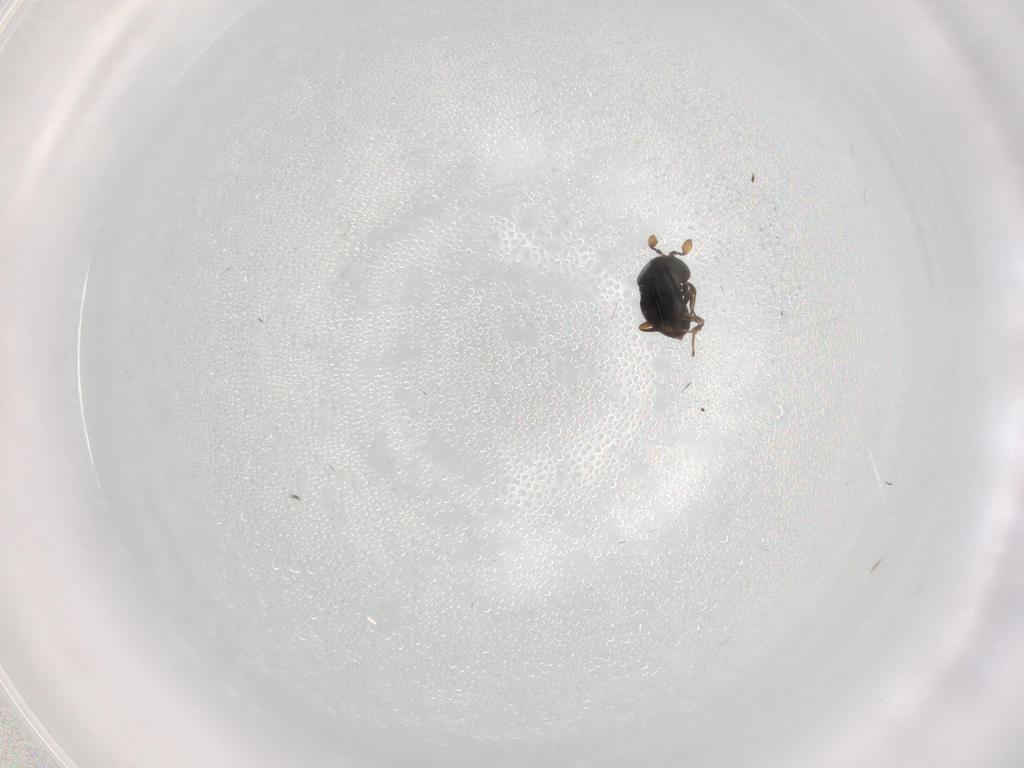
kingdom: Animalia
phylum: Arthropoda
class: Insecta
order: Hymenoptera
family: Scelionidae
